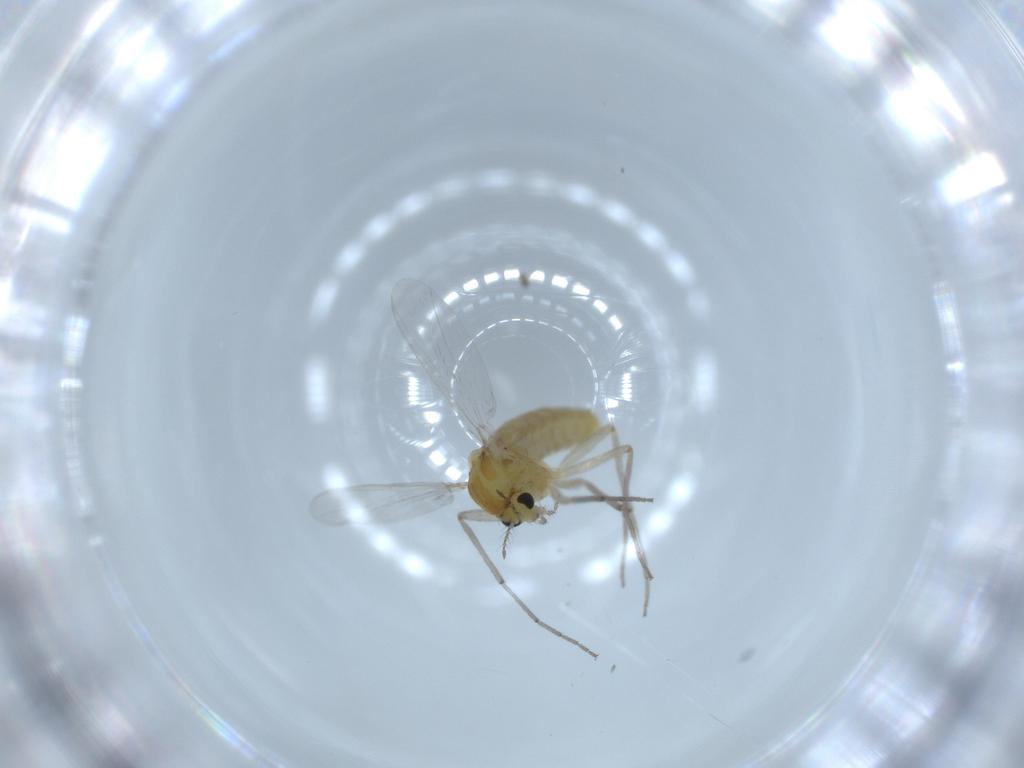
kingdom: Animalia
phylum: Arthropoda
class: Insecta
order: Diptera
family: Chironomidae
